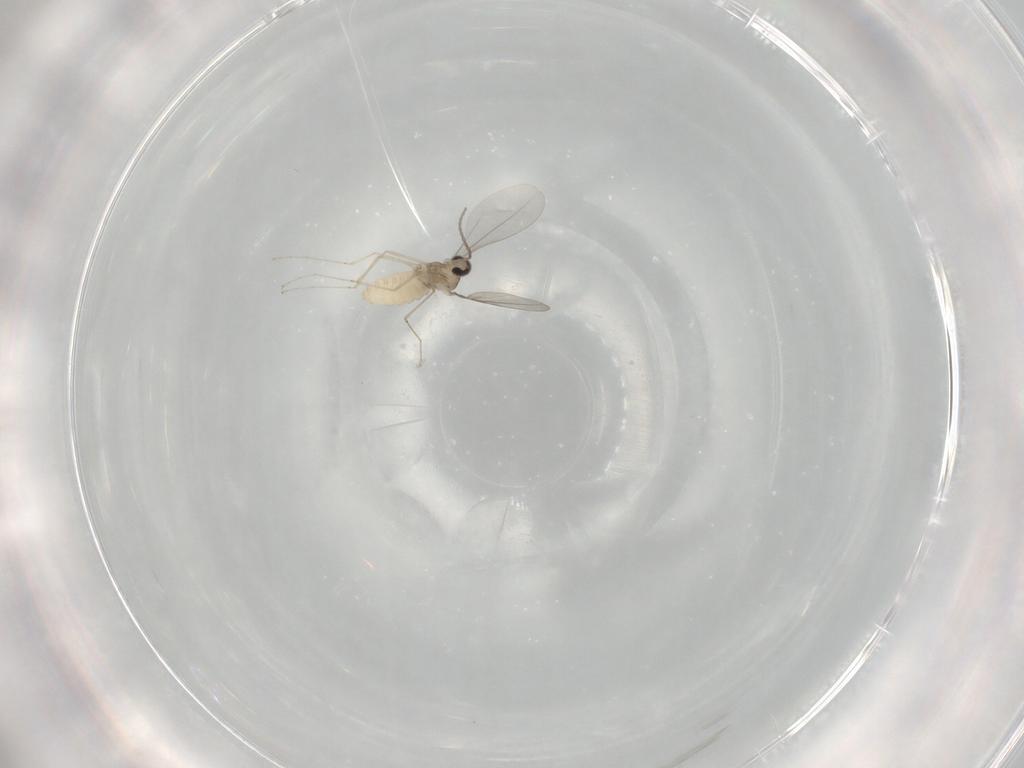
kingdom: Animalia
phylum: Arthropoda
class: Insecta
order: Diptera
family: Cecidomyiidae
